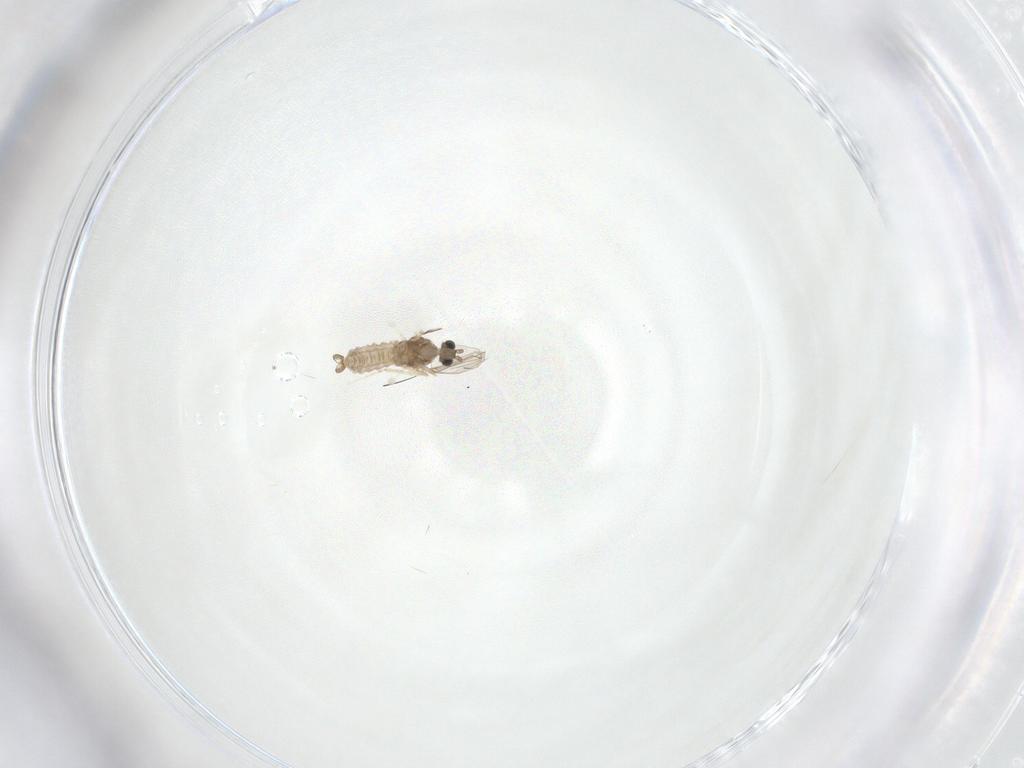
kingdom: Animalia
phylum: Arthropoda
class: Insecta
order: Diptera
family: Cecidomyiidae
